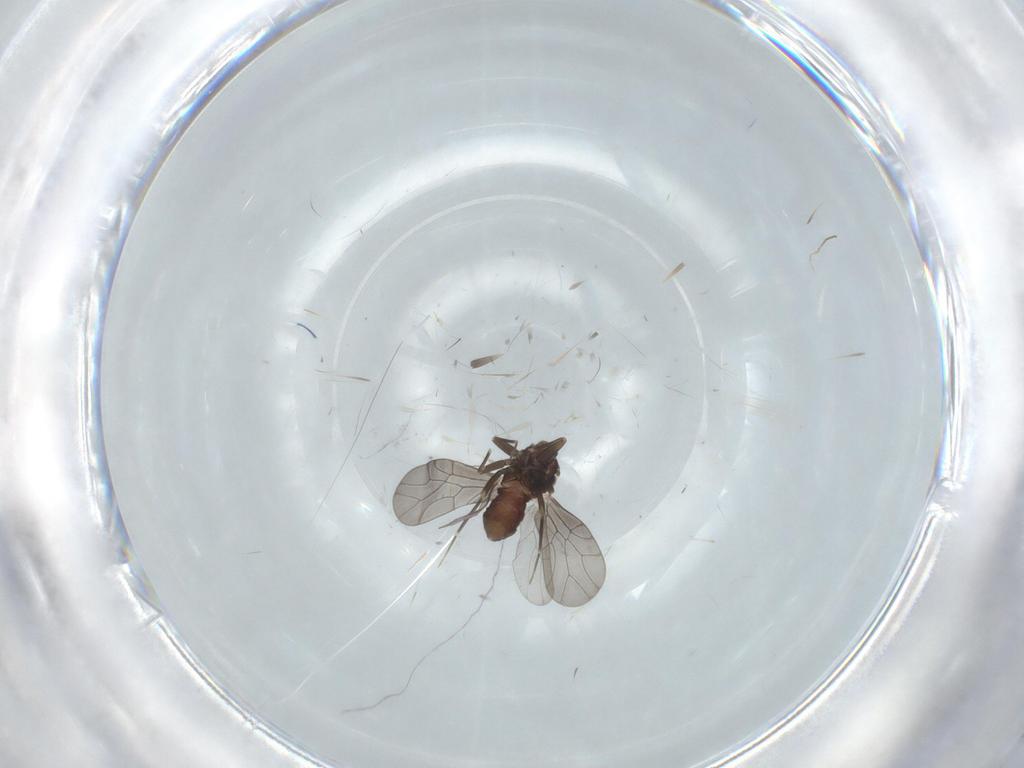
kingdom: Animalia
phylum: Arthropoda
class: Insecta
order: Psocodea
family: Lepidopsocidae
